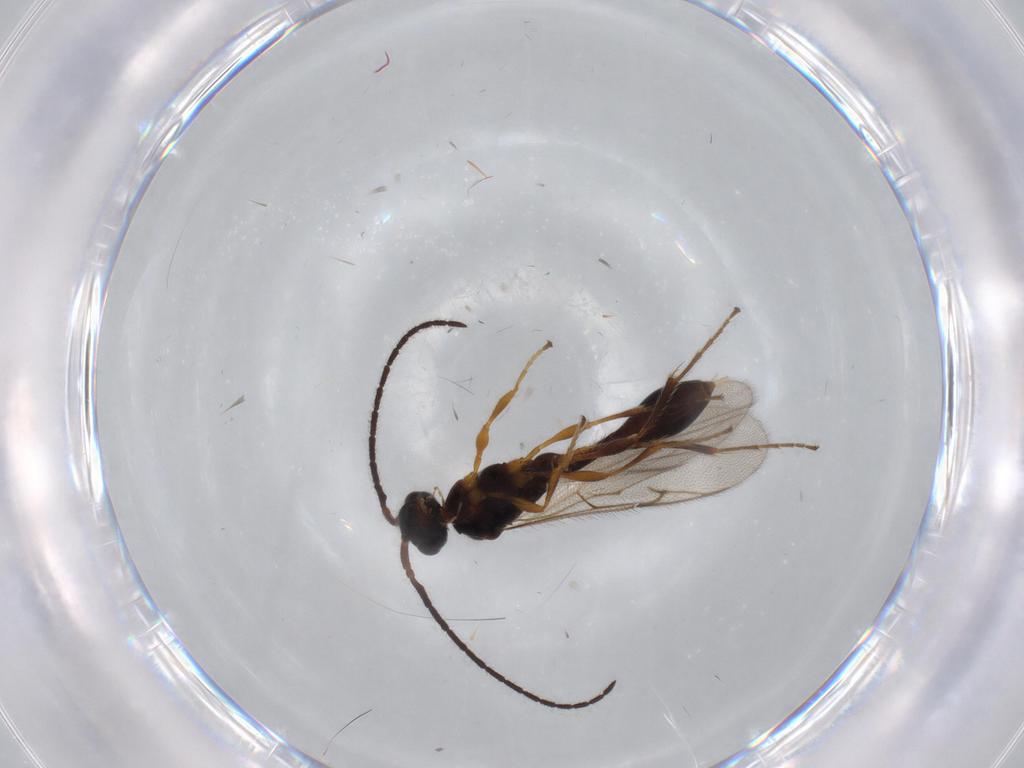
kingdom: Animalia
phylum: Arthropoda
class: Insecta
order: Hymenoptera
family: Diapriidae
